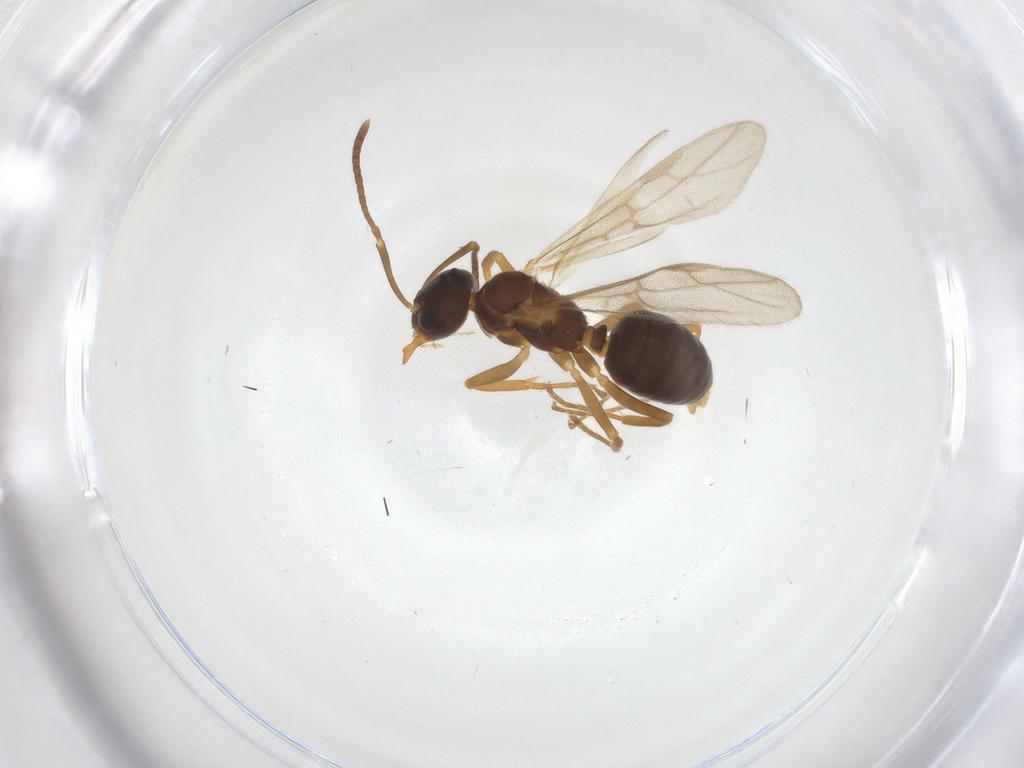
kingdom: Animalia
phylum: Arthropoda
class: Insecta
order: Hymenoptera
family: Formicidae
